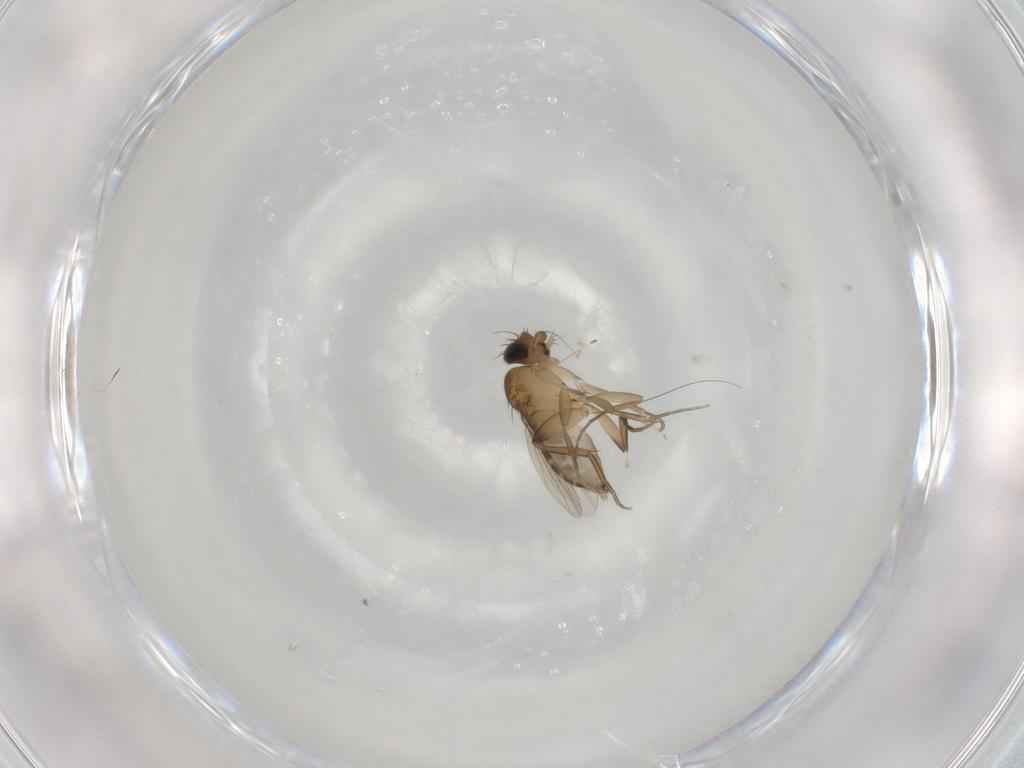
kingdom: Animalia
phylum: Arthropoda
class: Insecta
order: Diptera
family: Phoridae
